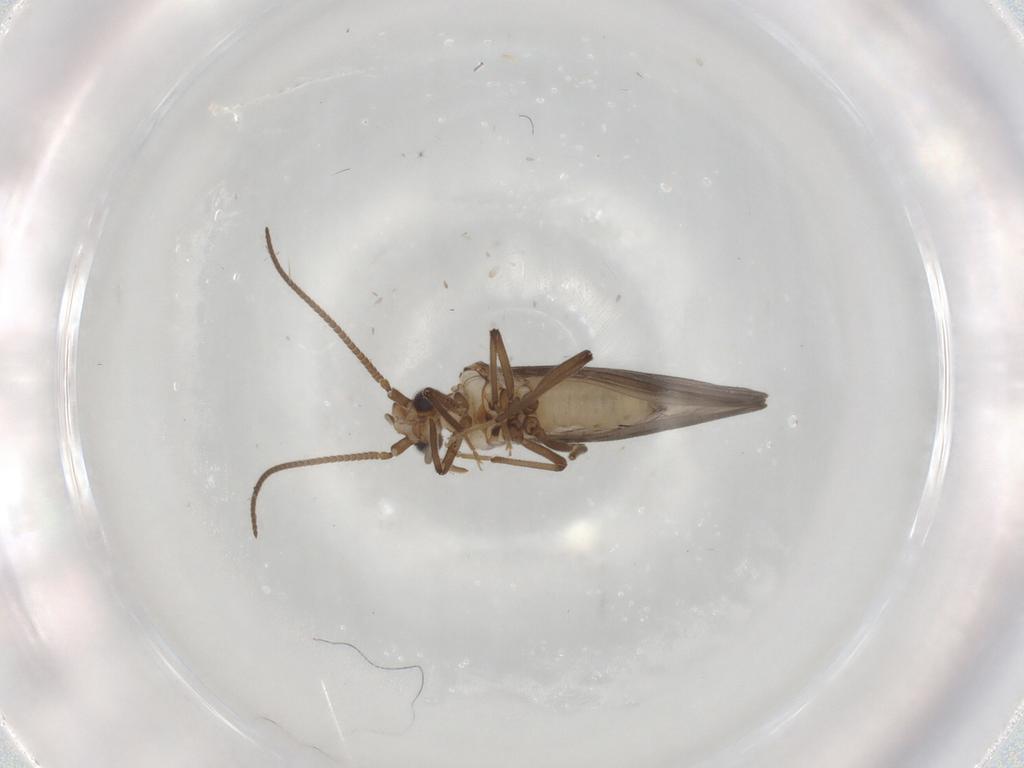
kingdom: Animalia
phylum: Arthropoda
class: Insecta
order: Neuroptera
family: Coniopterygidae
